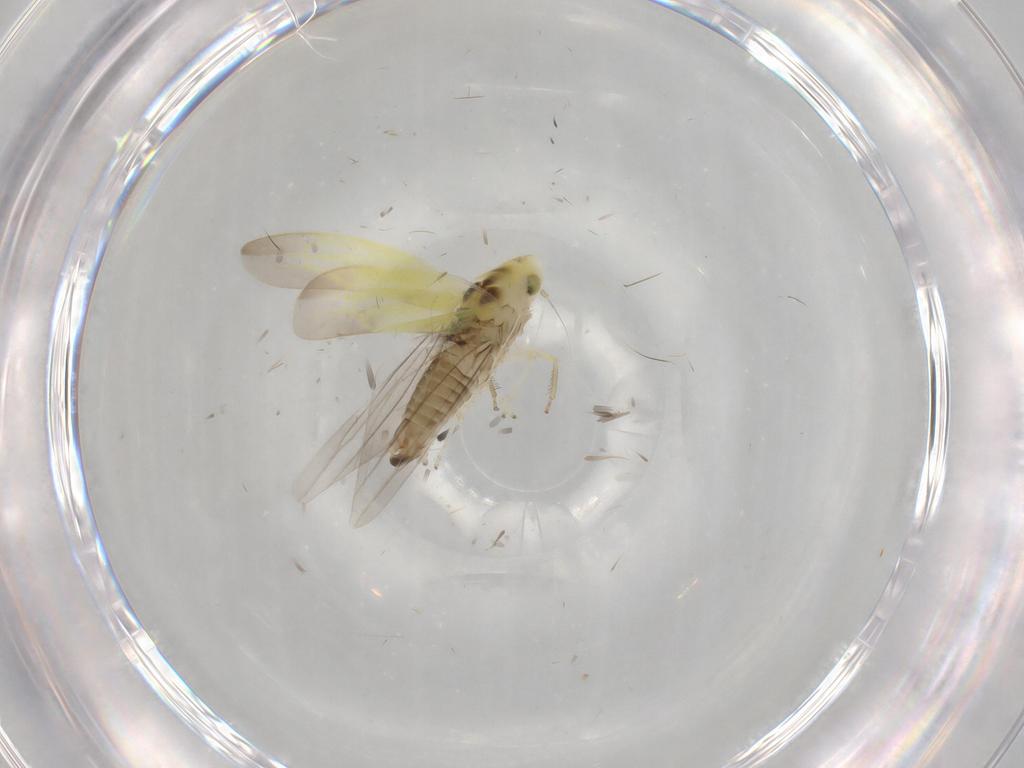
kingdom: Animalia
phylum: Arthropoda
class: Insecta
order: Hemiptera
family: Cicadellidae
